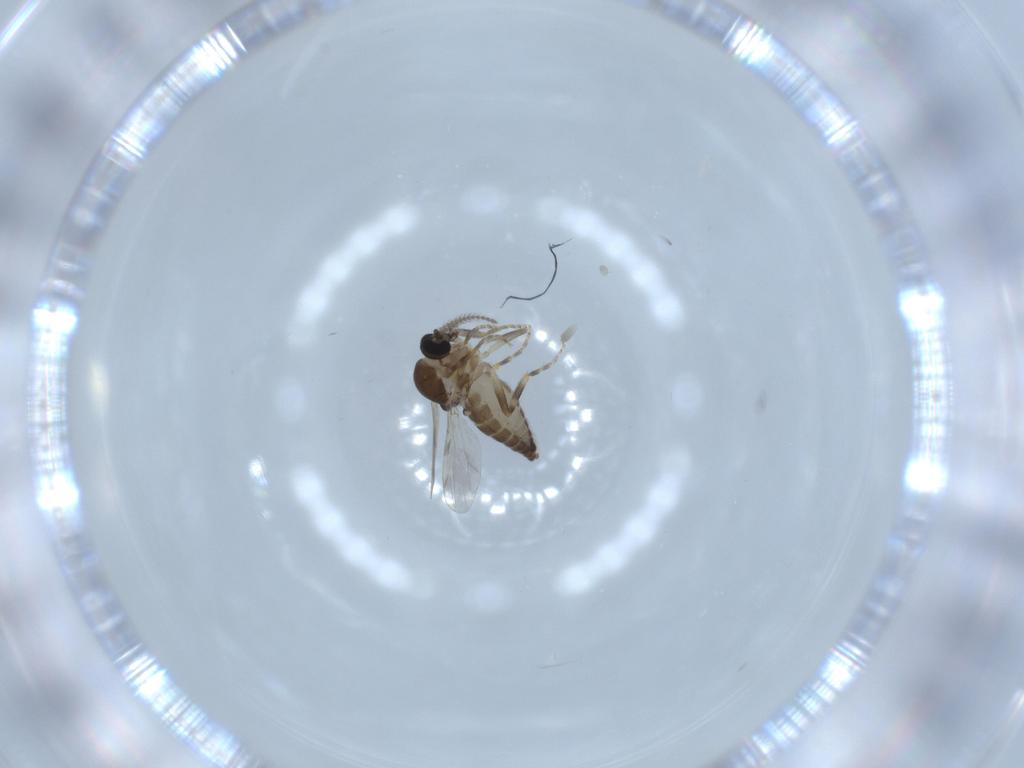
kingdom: Animalia
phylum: Arthropoda
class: Insecta
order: Diptera
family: Ceratopogonidae
